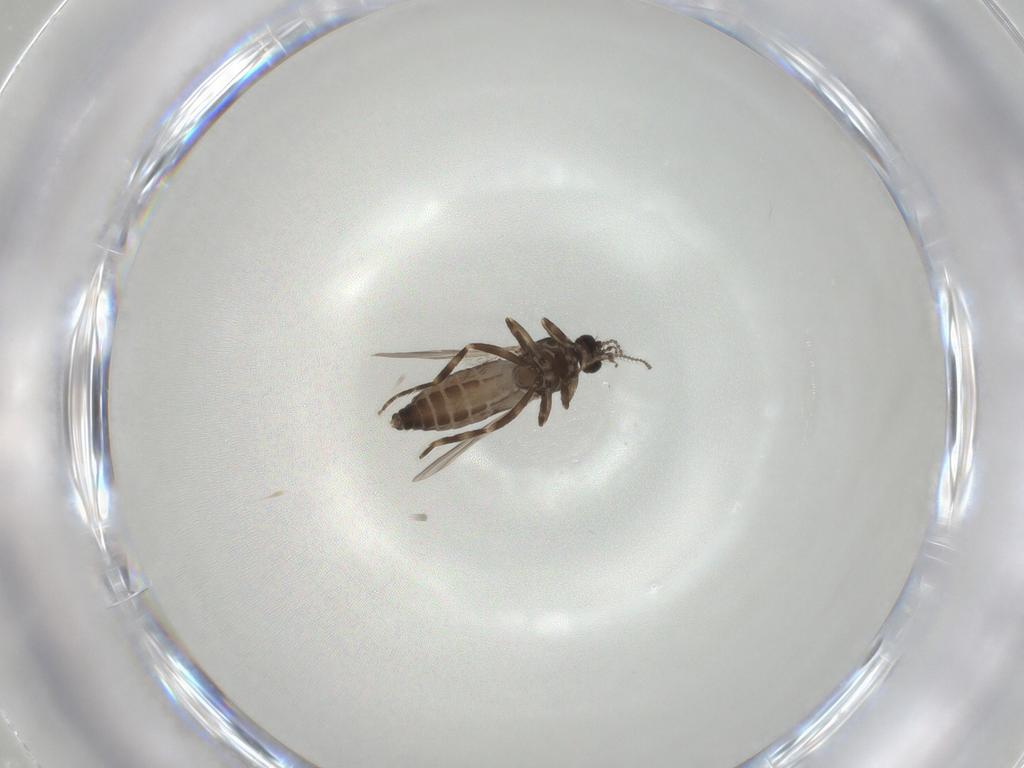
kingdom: Animalia
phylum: Arthropoda
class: Insecta
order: Diptera
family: Ceratopogonidae
